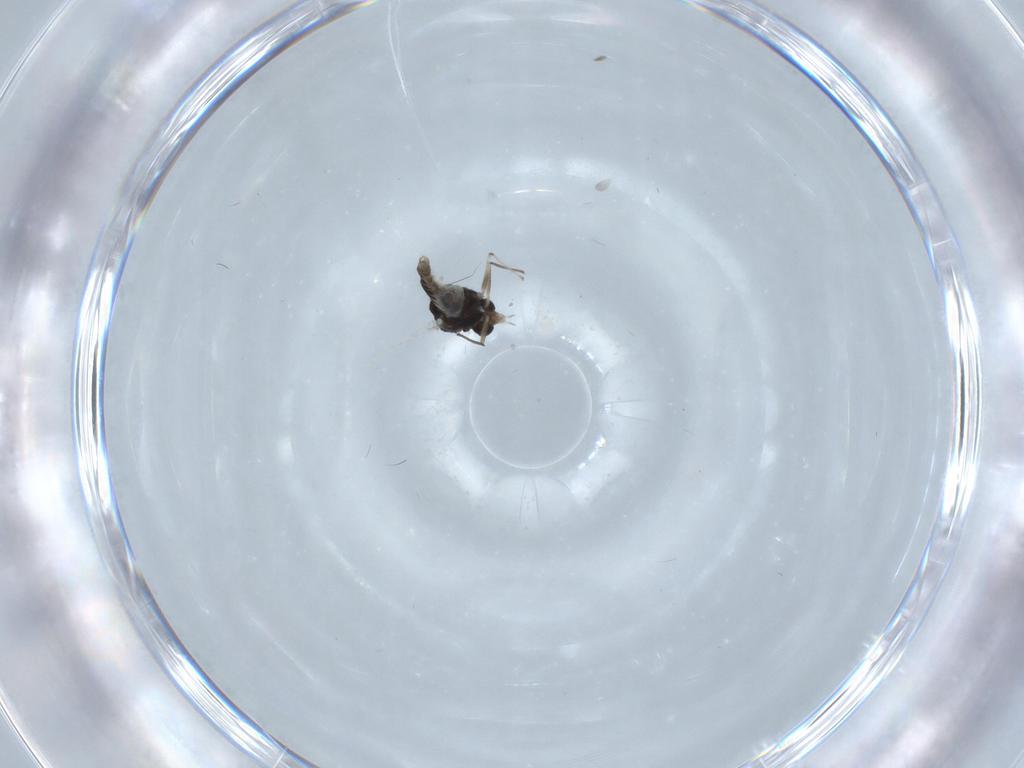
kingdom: Animalia
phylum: Arthropoda
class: Insecta
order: Diptera
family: Chironomidae
